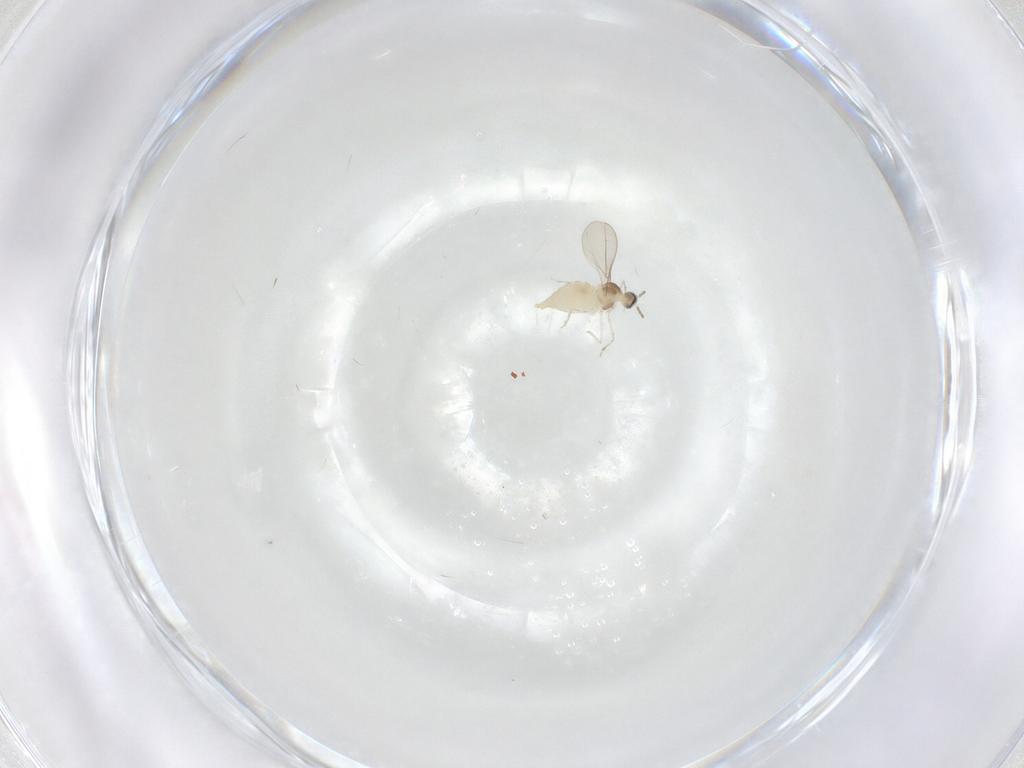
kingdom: Animalia
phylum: Arthropoda
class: Insecta
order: Diptera
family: Cecidomyiidae
